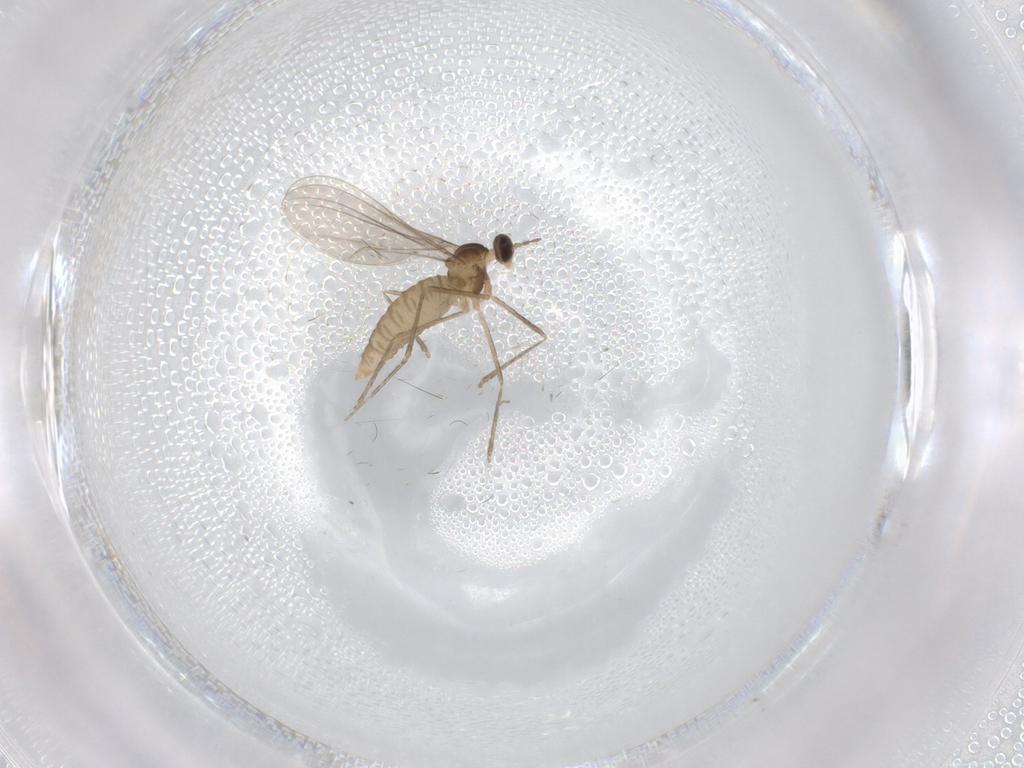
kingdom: Animalia
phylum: Arthropoda
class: Insecta
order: Diptera
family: Cecidomyiidae
